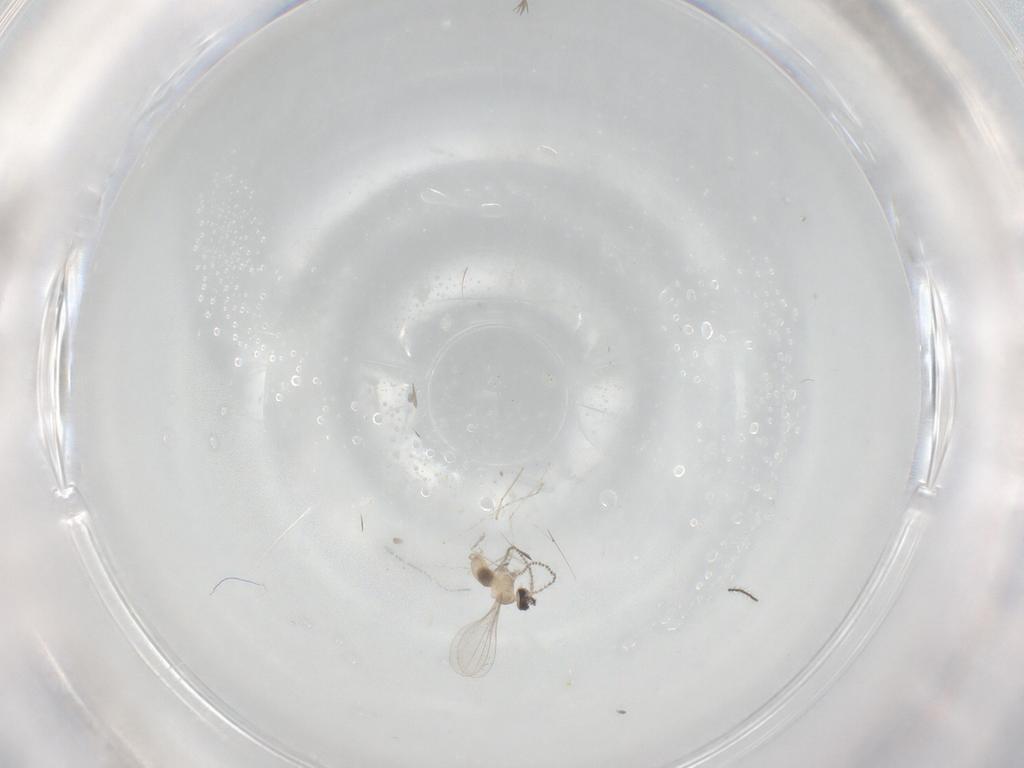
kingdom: Animalia
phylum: Arthropoda
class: Insecta
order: Diptera
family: Cecidomyiidae
